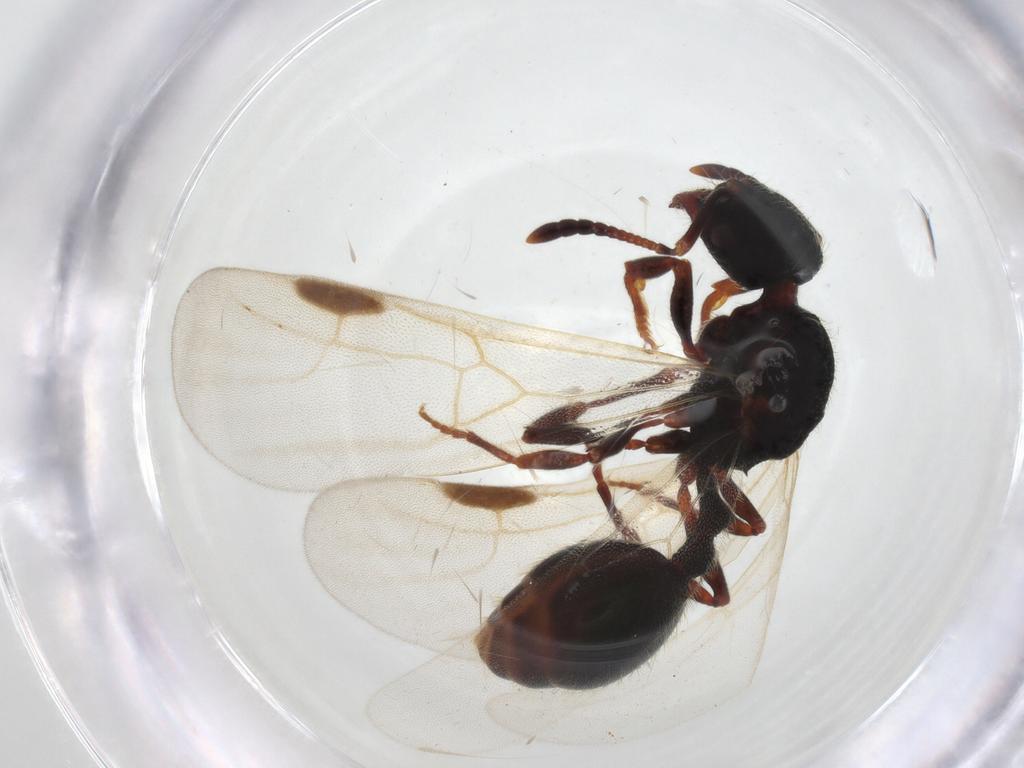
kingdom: Animalia
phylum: Arthropoda
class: Insecta
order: Hymenoptera
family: Formicidae
